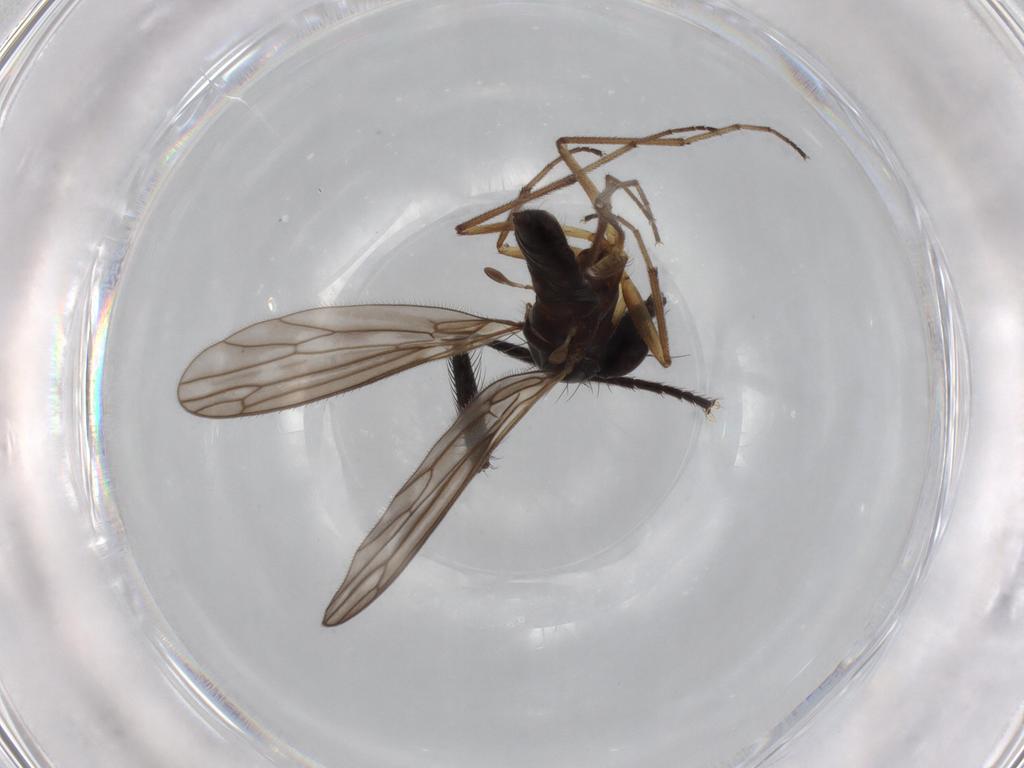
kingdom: Animalia
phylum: Arthropoda
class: Insecta
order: Diptera
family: Empididae
